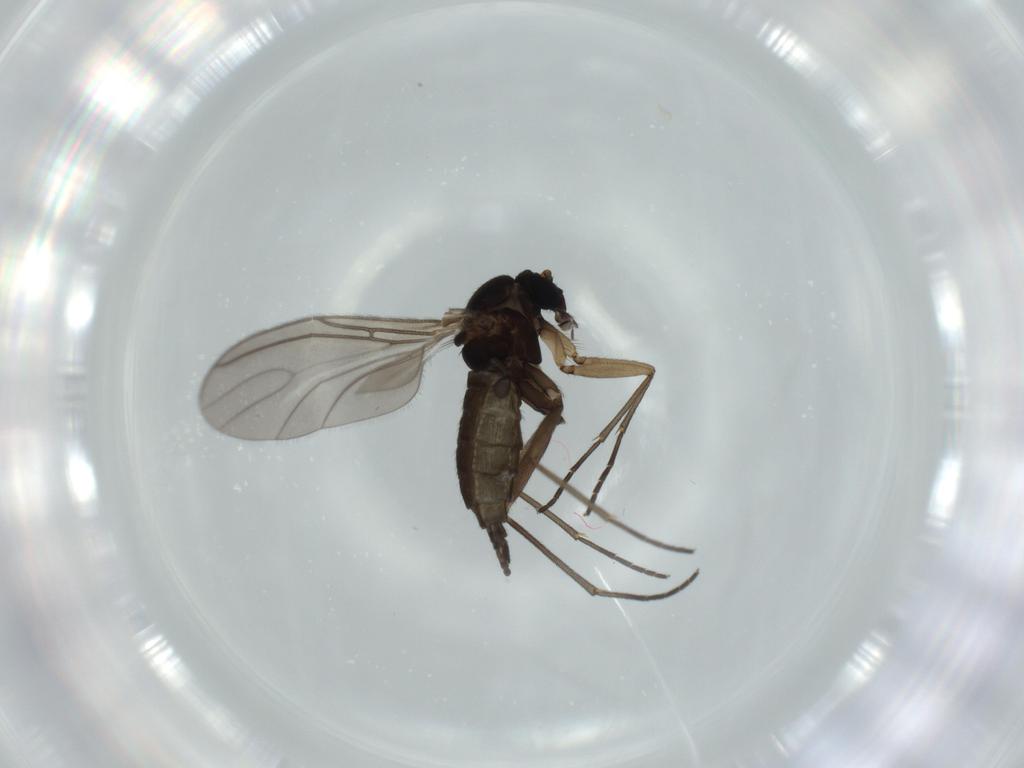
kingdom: Animalia
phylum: Arthropoda
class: Insecta
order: Diptera
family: Sciaridae
